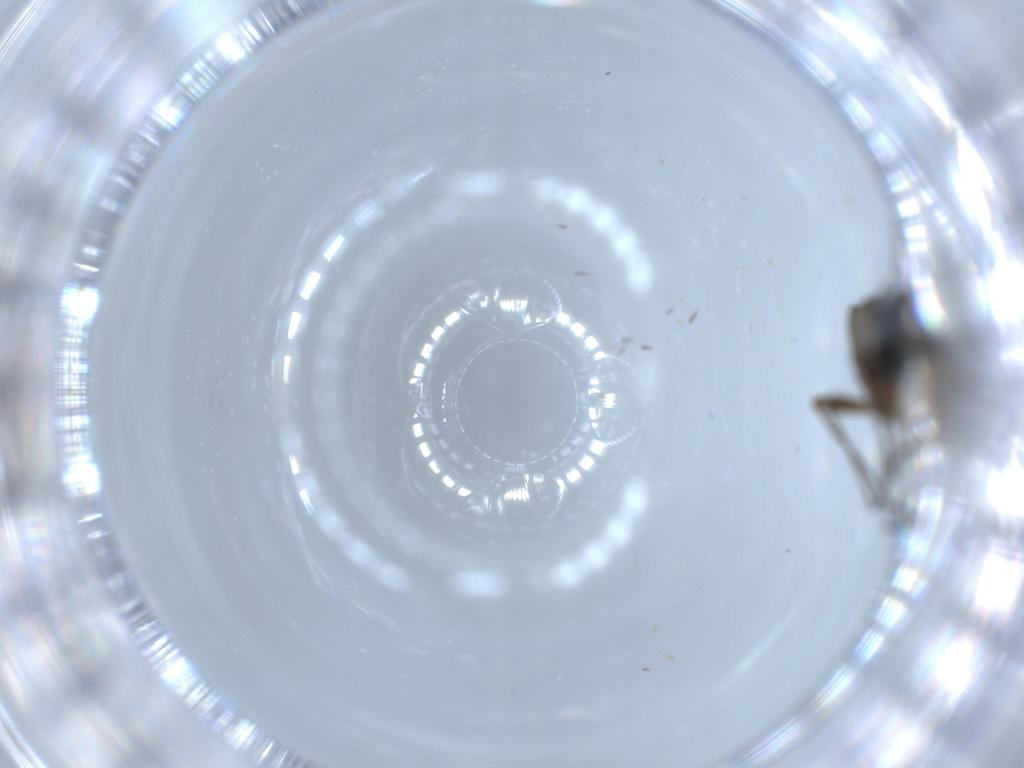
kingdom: Animalia
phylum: Arthropoda
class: Insecta
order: Diptera
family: Sciaridae
